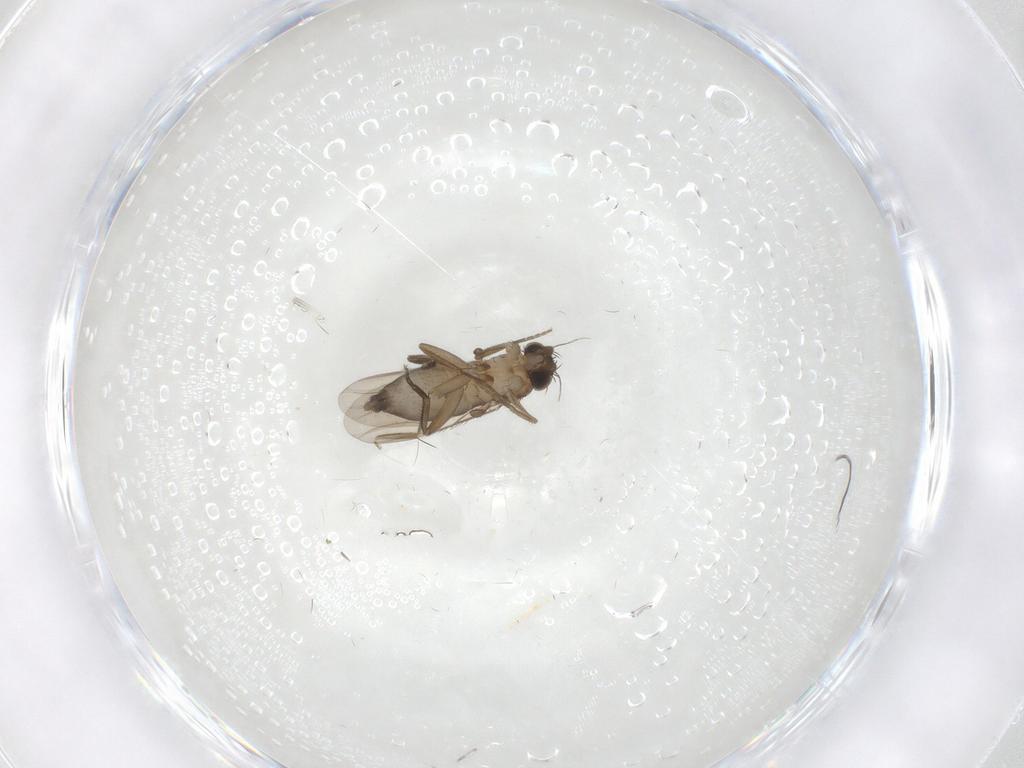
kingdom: Animalia
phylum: Arthropoda
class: Insecta
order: Diptera
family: Phoridae
